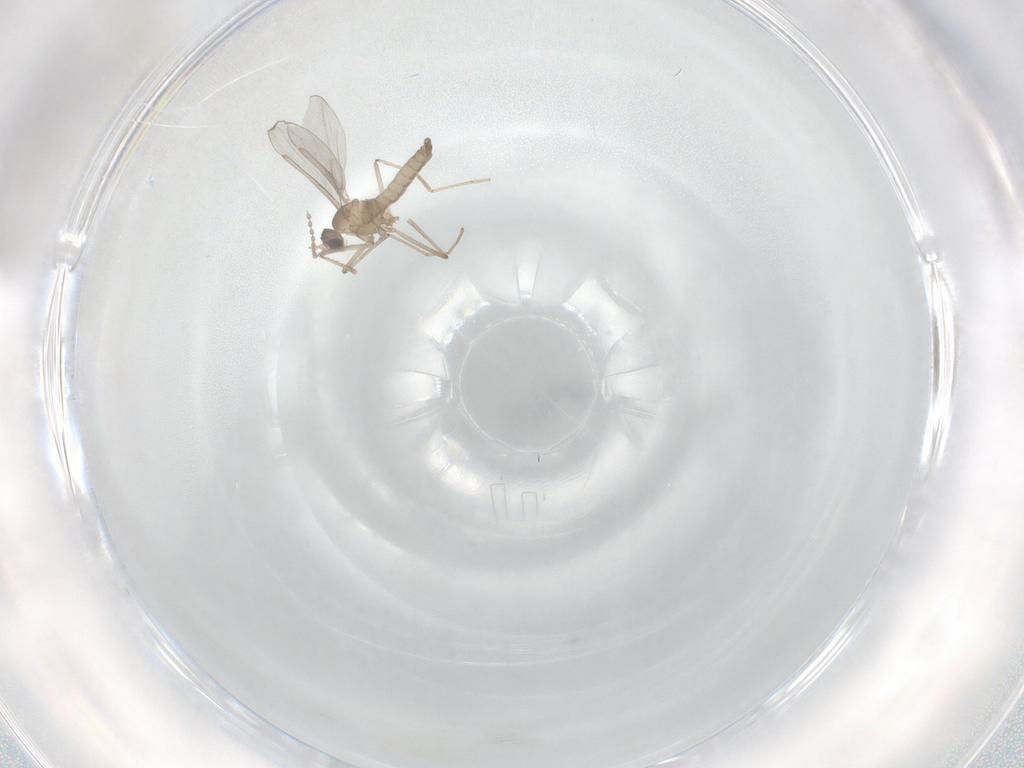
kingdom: Animalia
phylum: Arthropoda
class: Insecta
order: Diptera
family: Cecidomyiidae
